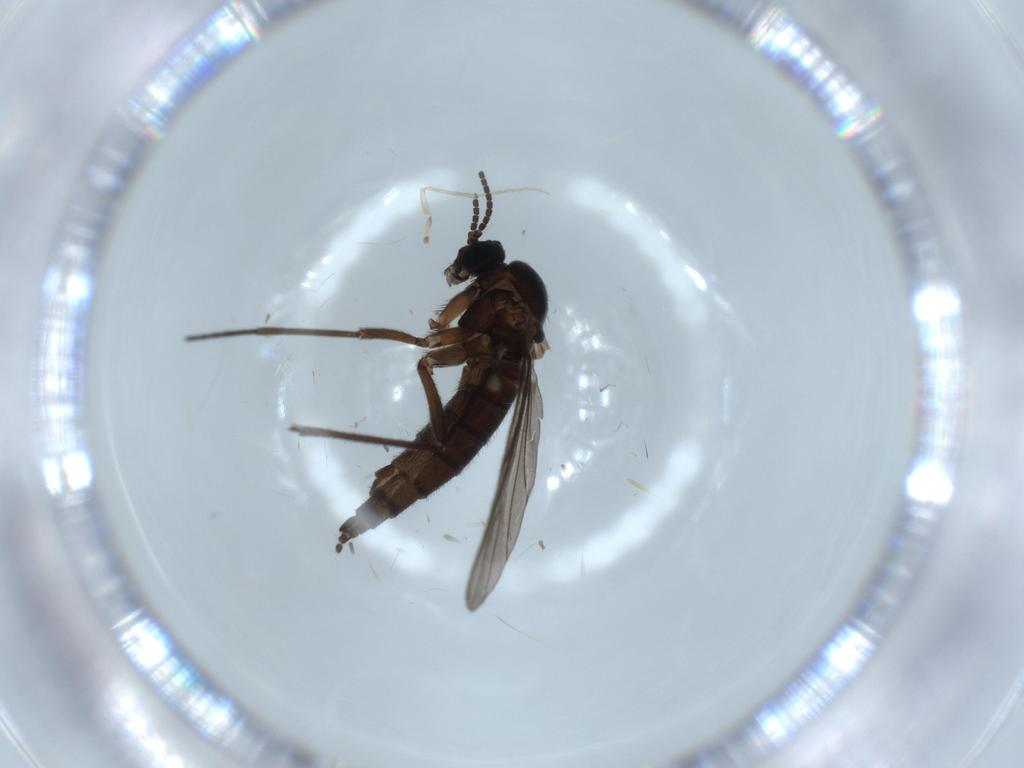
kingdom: Animalia
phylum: Arthropoda
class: Insecta
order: Diptera
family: Sciaridae
